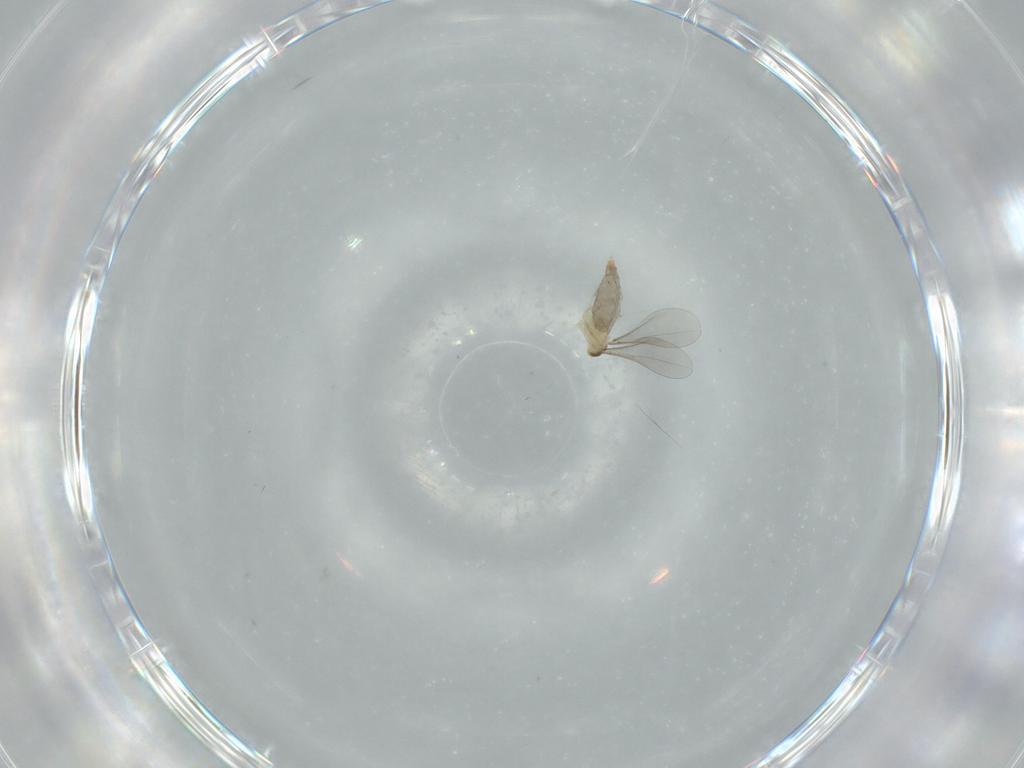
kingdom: Animalia
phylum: Arthropoda
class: Insecta
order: Diptera
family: Cecidomyiidae
